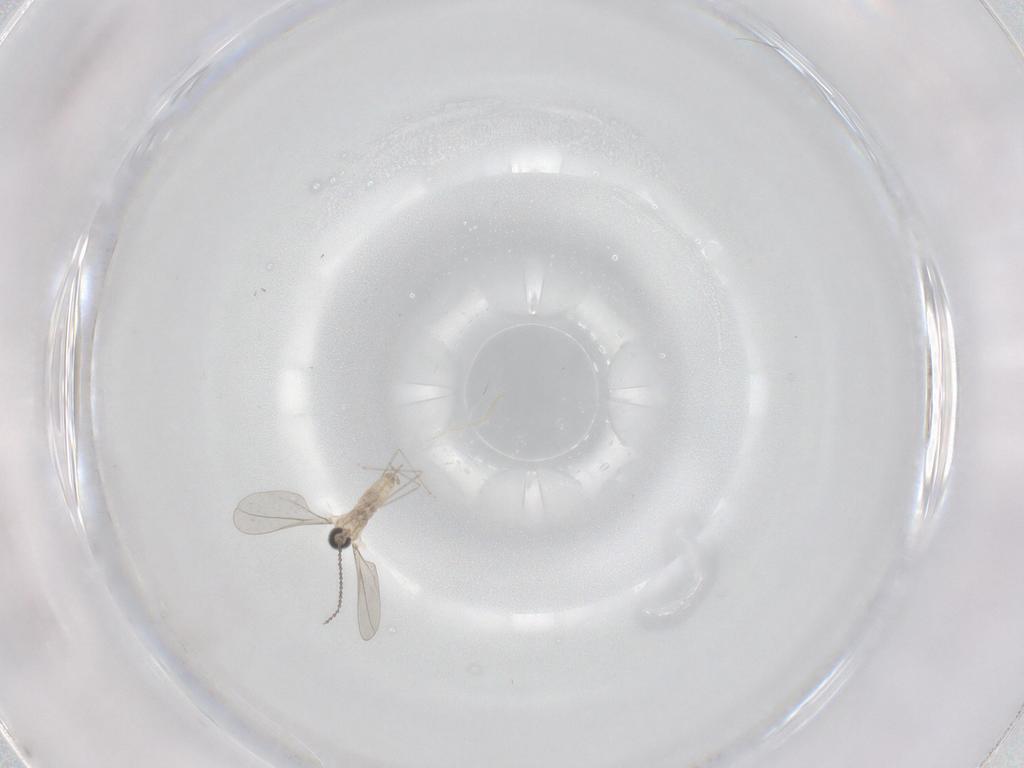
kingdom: Animalia
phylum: Arthropoda
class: Insecta
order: Diptera
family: Cecidomyiidae
